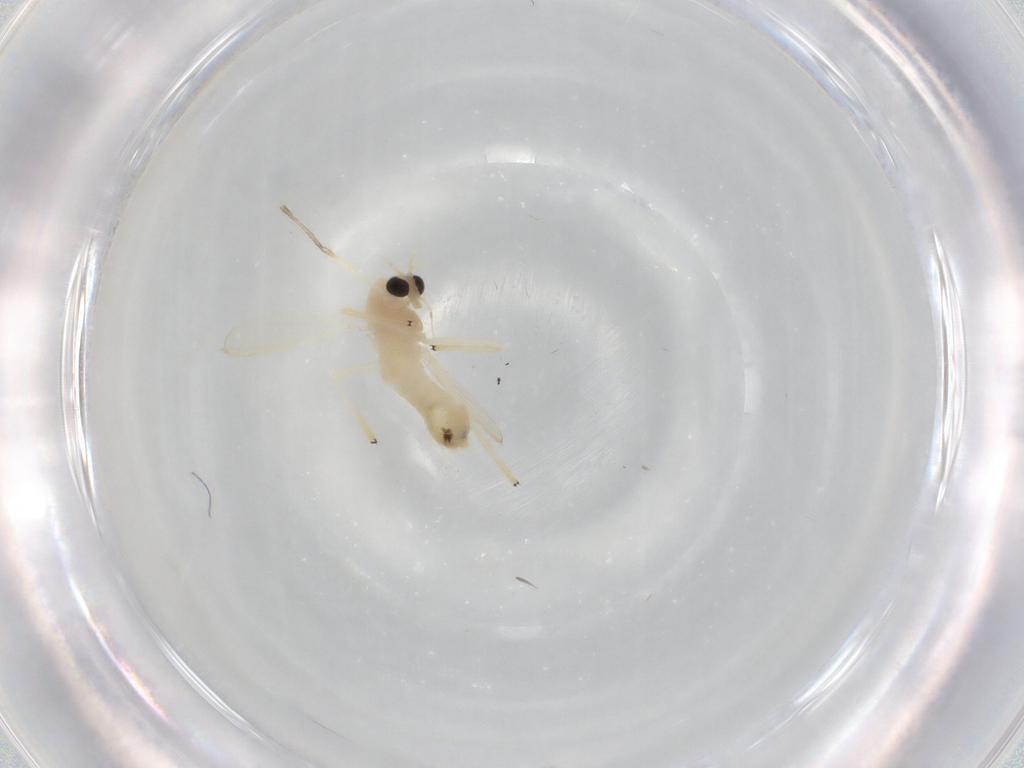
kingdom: Animalia
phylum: Arthropoda
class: Insecta
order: Diptera
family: Chironomidae
